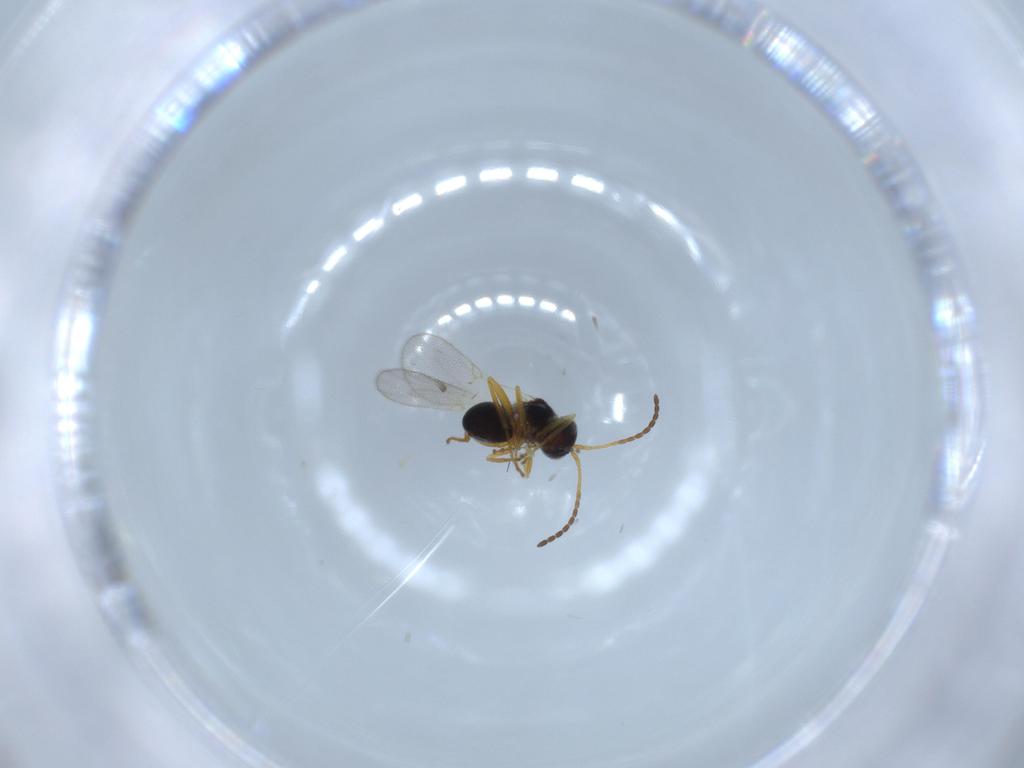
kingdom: Animalia
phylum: Arthropoda
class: Insecta
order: Hymenoptera
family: Figitidae
